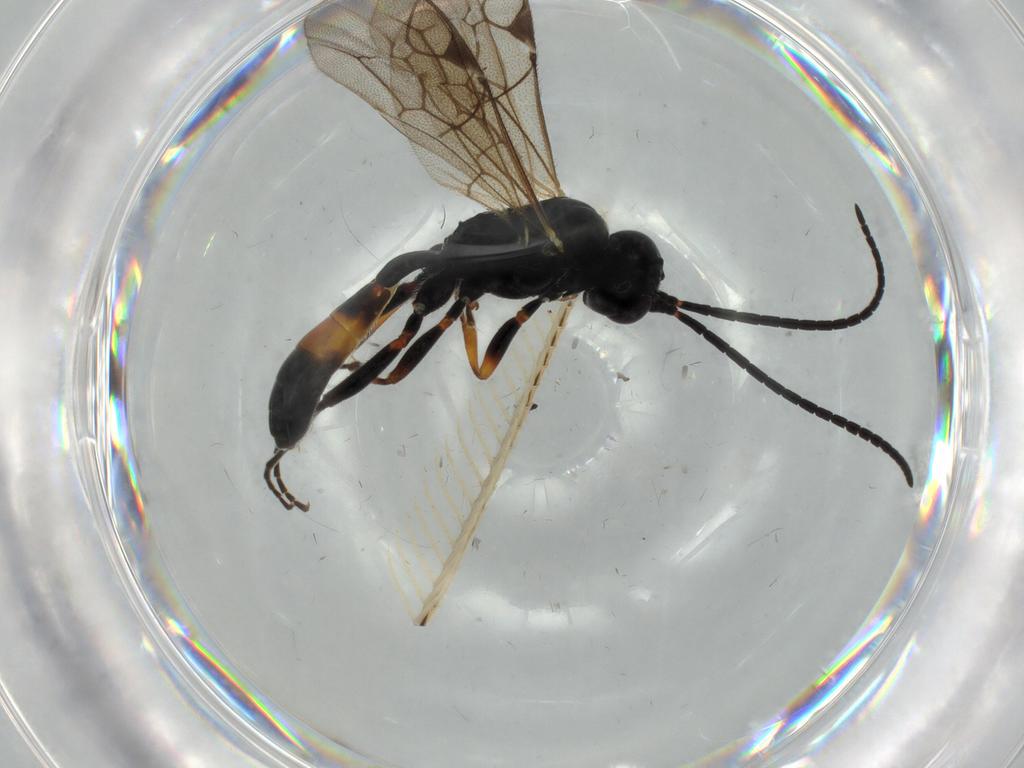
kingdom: Animalia
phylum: Arthropoda
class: Insecta
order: Hymenoptera
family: Ichneumonidae
